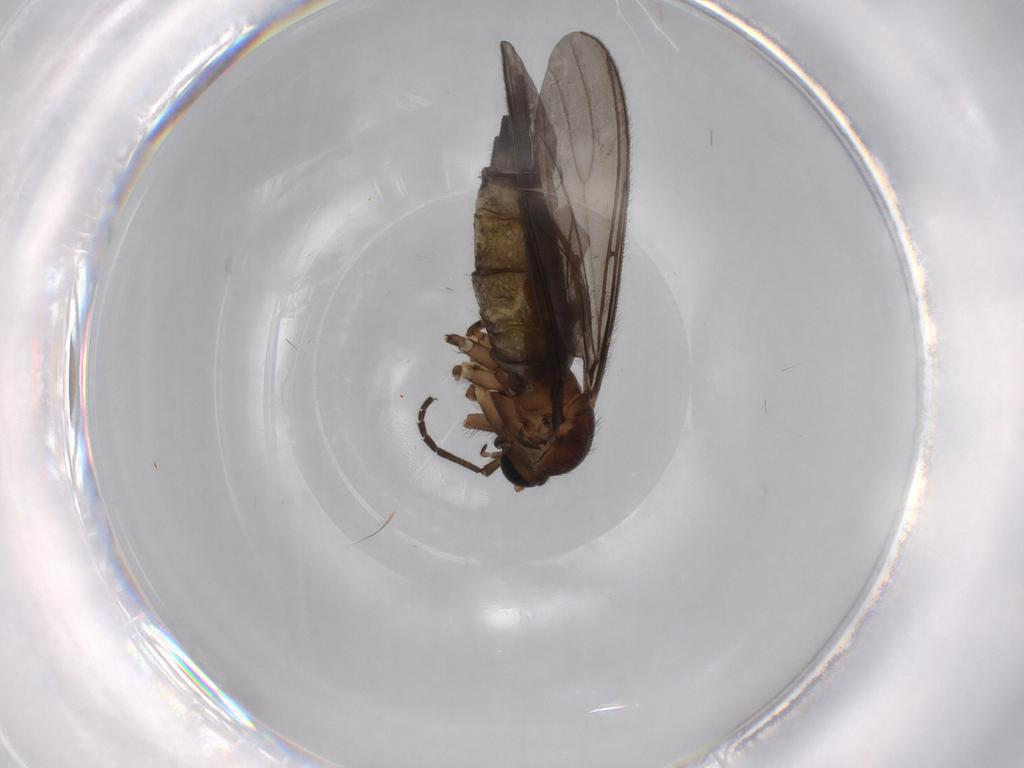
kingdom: Animalia
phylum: Arthropoda
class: Insecta
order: Diptera
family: Sciaridae
